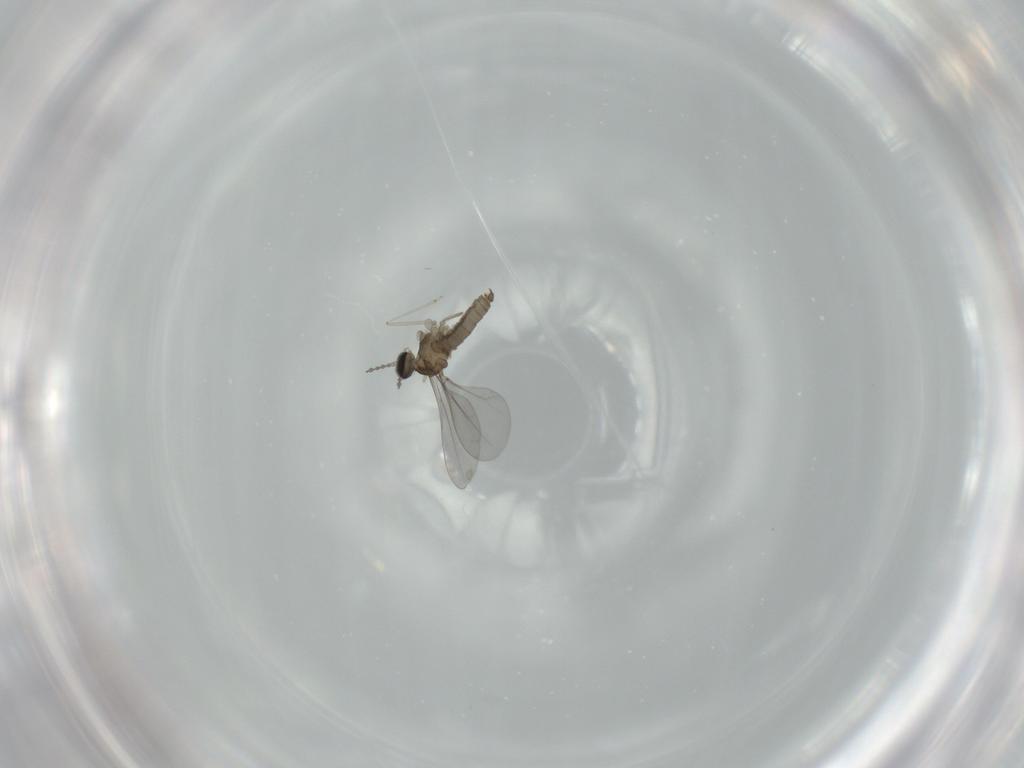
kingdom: Animalia
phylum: Arthropoda
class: Insecta
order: Diptera
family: Cecidomyiidae
